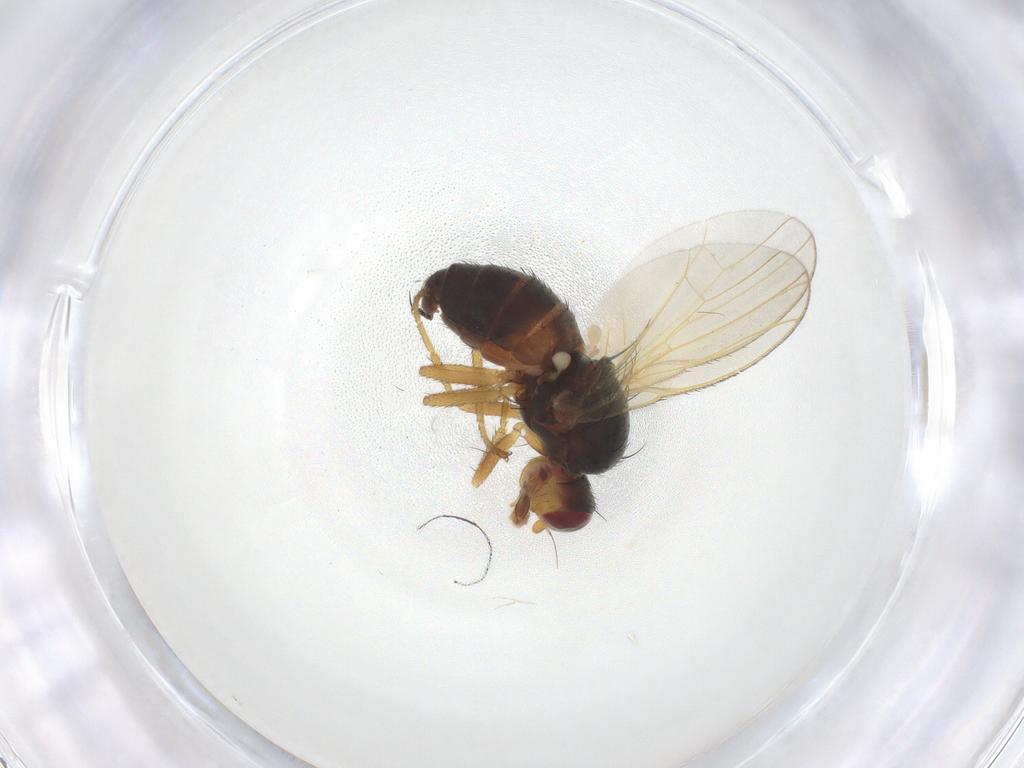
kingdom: Animalia
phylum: Arthropoda
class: Insecta
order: Diptera
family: Heleomyzidae
